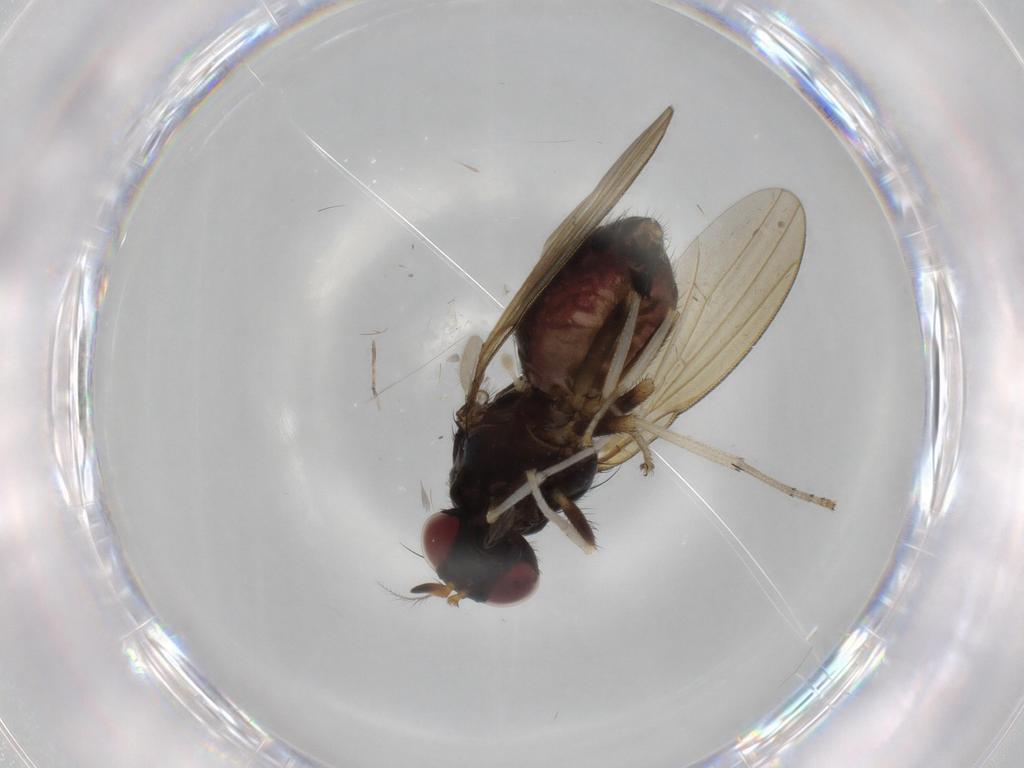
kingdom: Animalia
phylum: Arthropoda
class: Insecta
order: Diptera
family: Lauxaniidae
